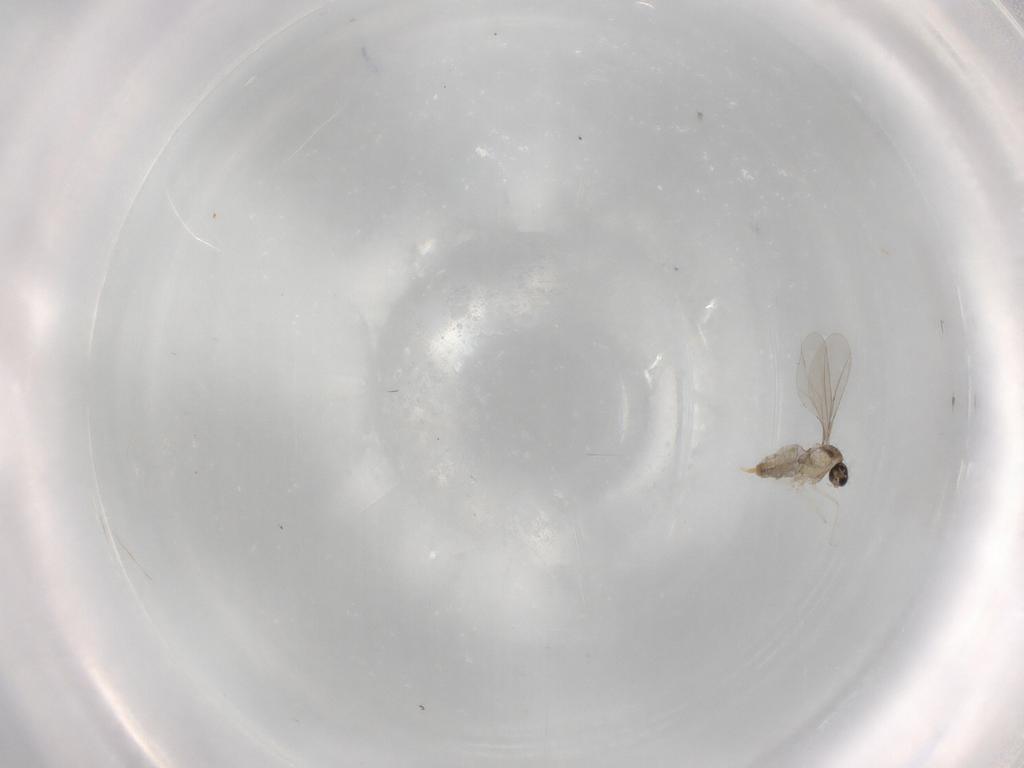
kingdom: Animalia
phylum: Arthropoda
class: Insecta
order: Diptera
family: Cecidomyiidae
